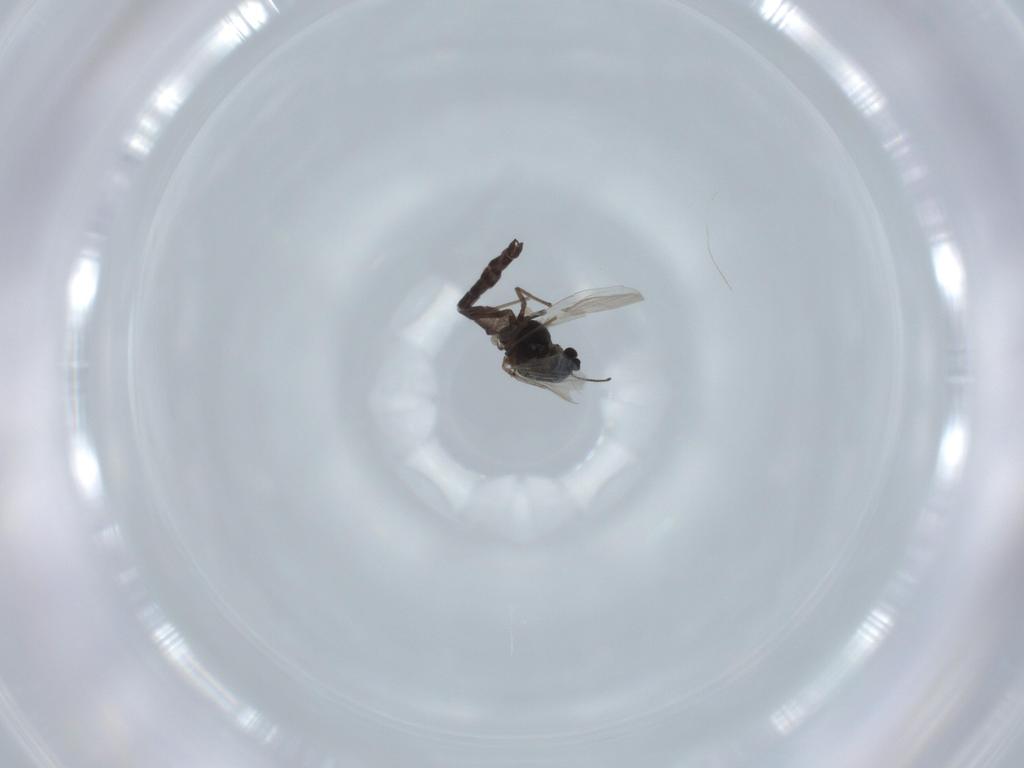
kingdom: Animalia
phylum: Arthropoda
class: Insecta
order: Diptera
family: Chironomidae
